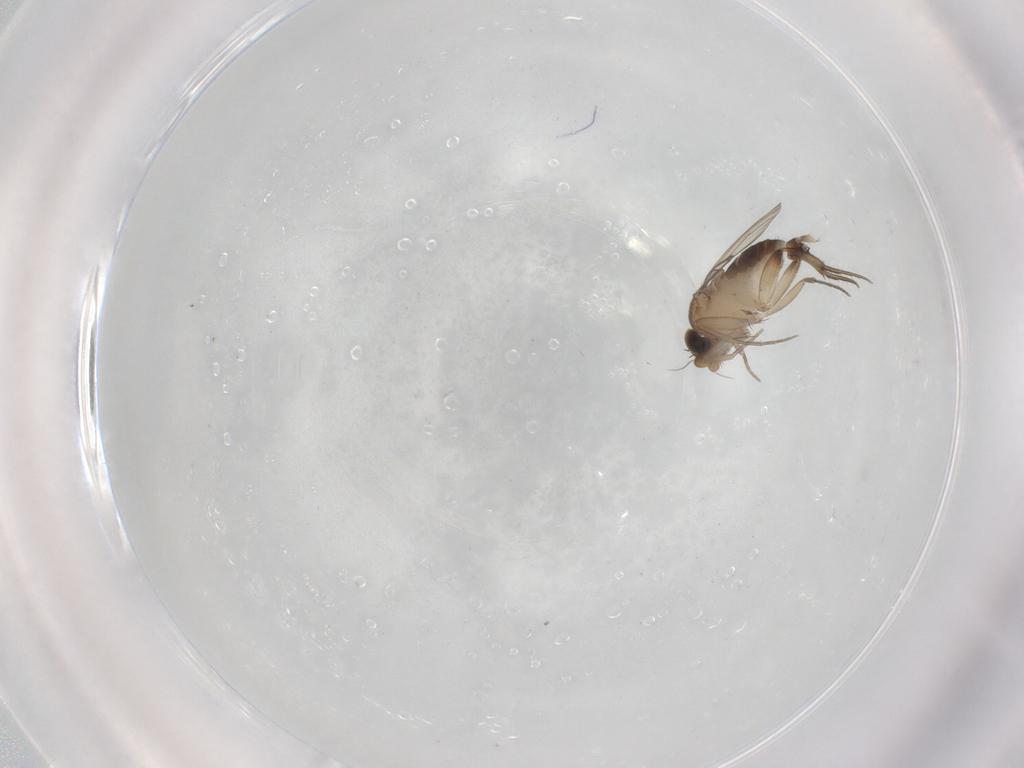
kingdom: Animalia
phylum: Arthropoda
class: Insecta
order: Diptera
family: Phoridae
